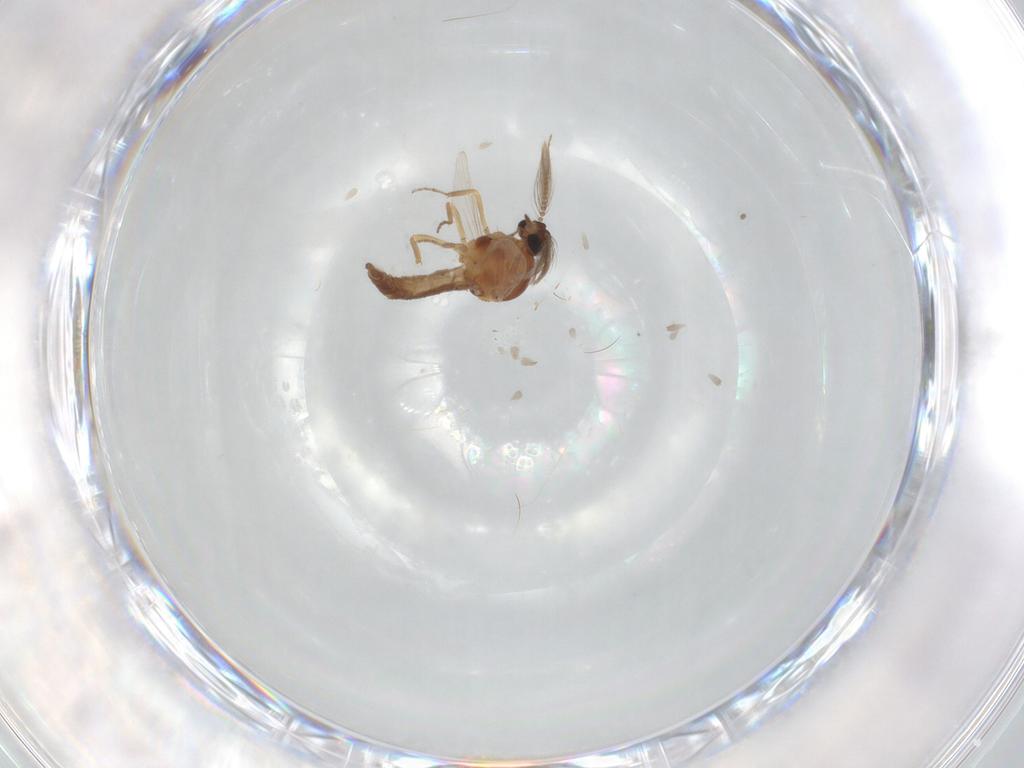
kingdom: Animalia
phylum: Arthropoda
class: Insecta
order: Diptera
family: Ceratopogonidae
